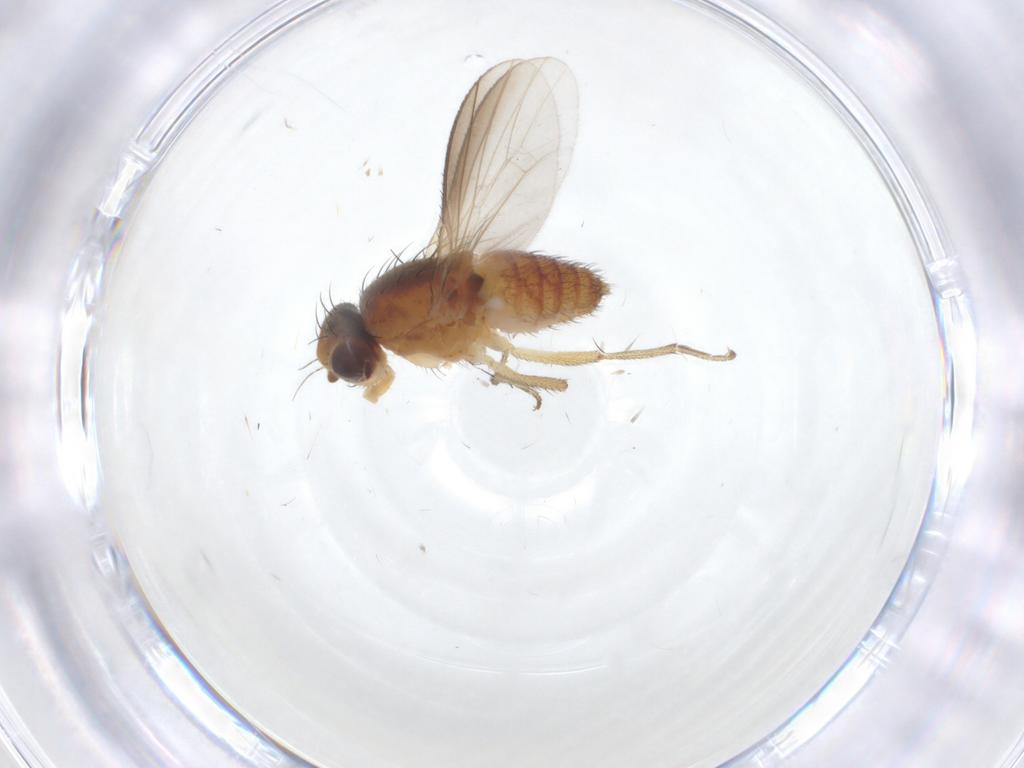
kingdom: Animalia
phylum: Arthropoda
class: Insecta
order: Diptera
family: Heleomyzidae
